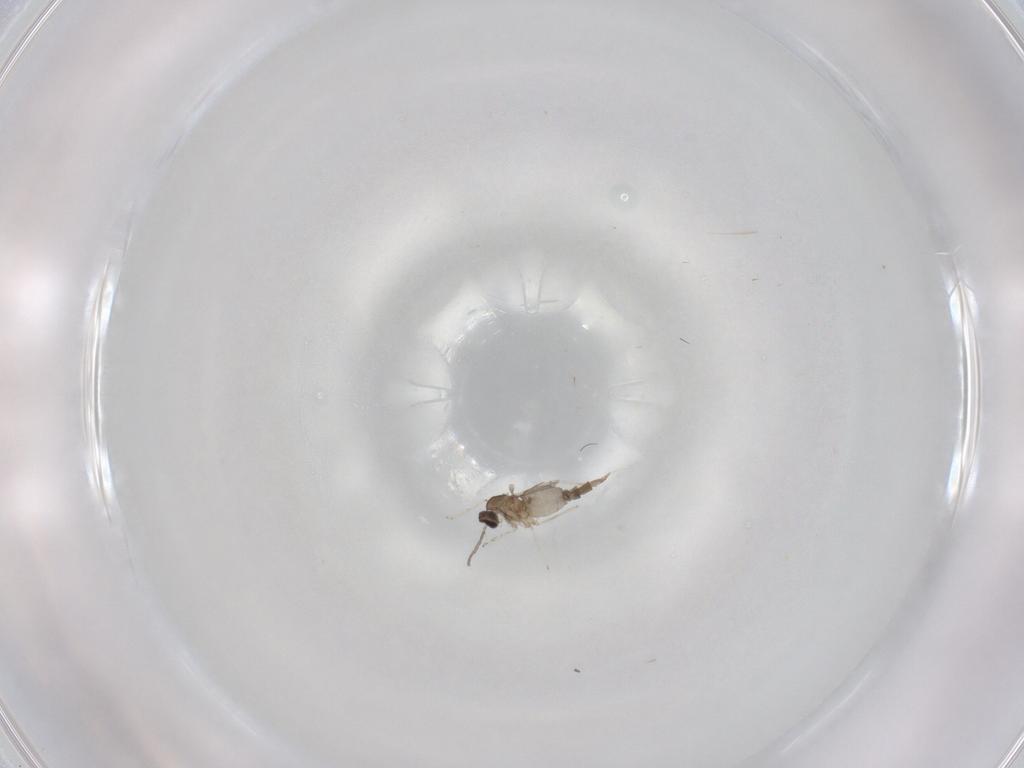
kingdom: Animalia
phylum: Arthropoda
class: Insecta
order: Diptera
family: Cecidomyiidae
